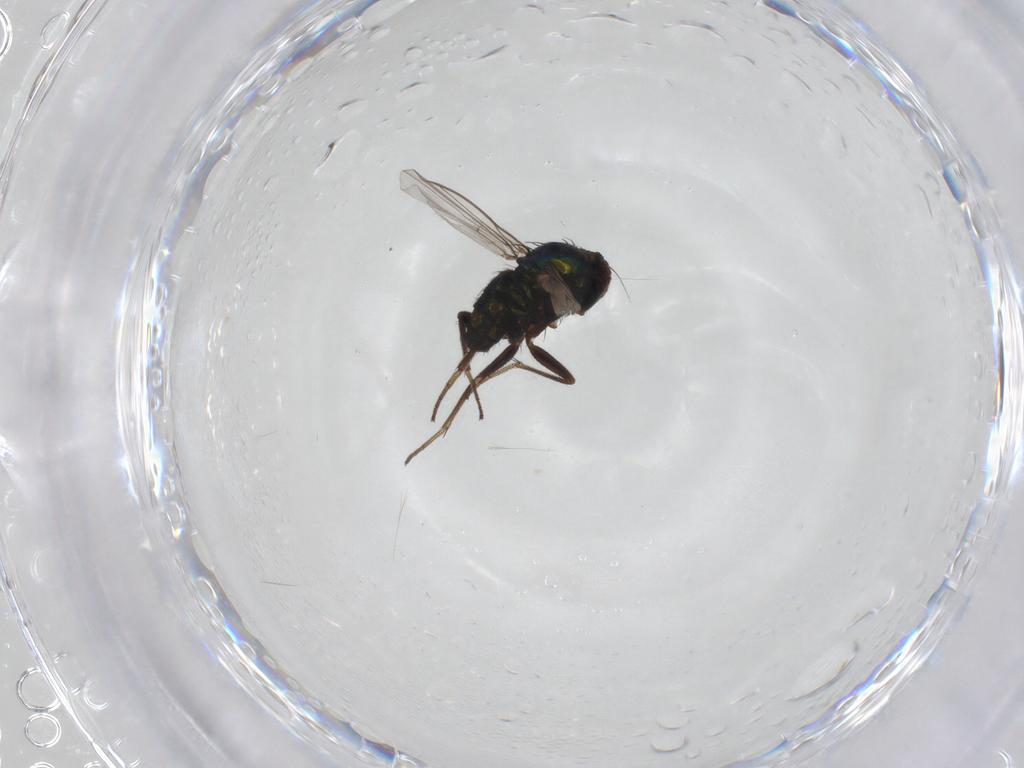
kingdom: Animalia
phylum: Arthropoda
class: Insecta
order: Diptera
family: Dolichopodidae
